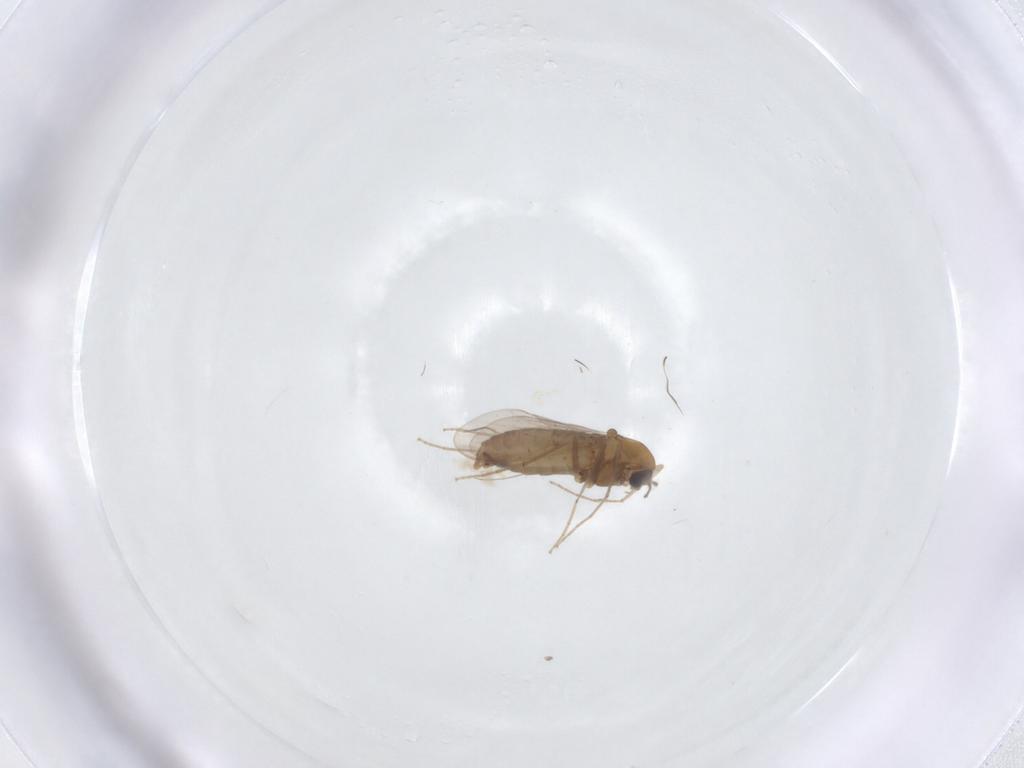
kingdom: Animalia
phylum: Arthropoda
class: Insecta
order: Diptera
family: Chironomidae
